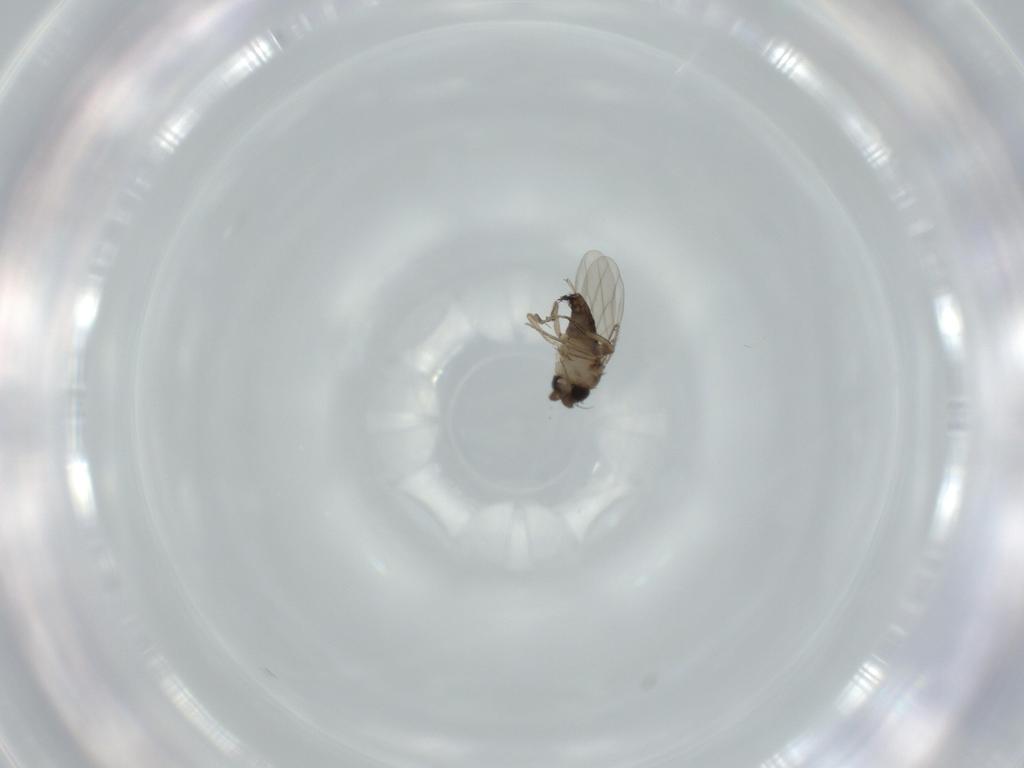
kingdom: Animalia
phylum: Arthropoda
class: Insecta
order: Diptera
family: Phoridae
